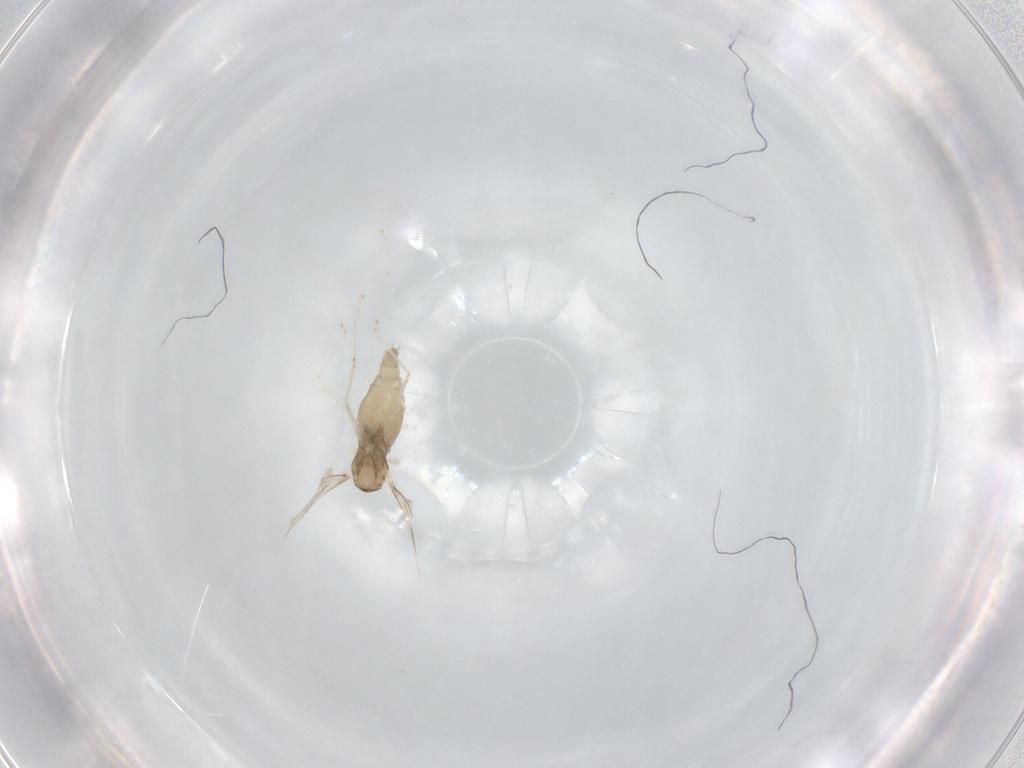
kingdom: Animalia
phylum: Arthropoda
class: Insecta
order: Diptera
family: Cecidomyiidae
